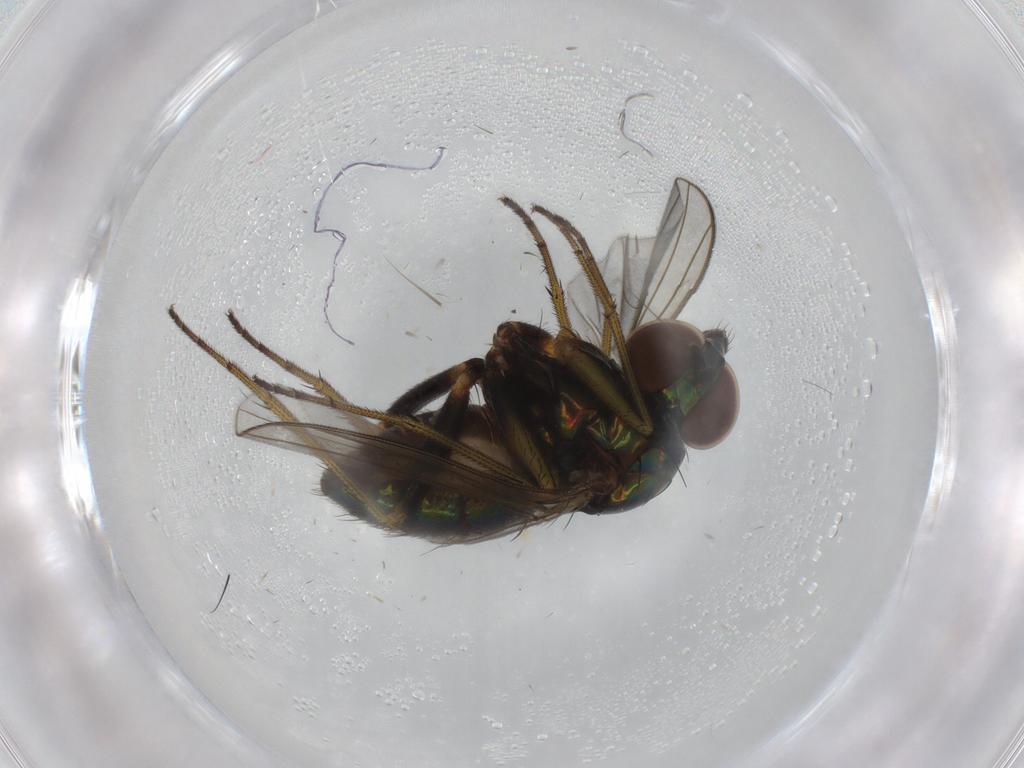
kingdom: Animalia
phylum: Arthropoda
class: Insecta
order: Diptera
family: Dolichopodidae
